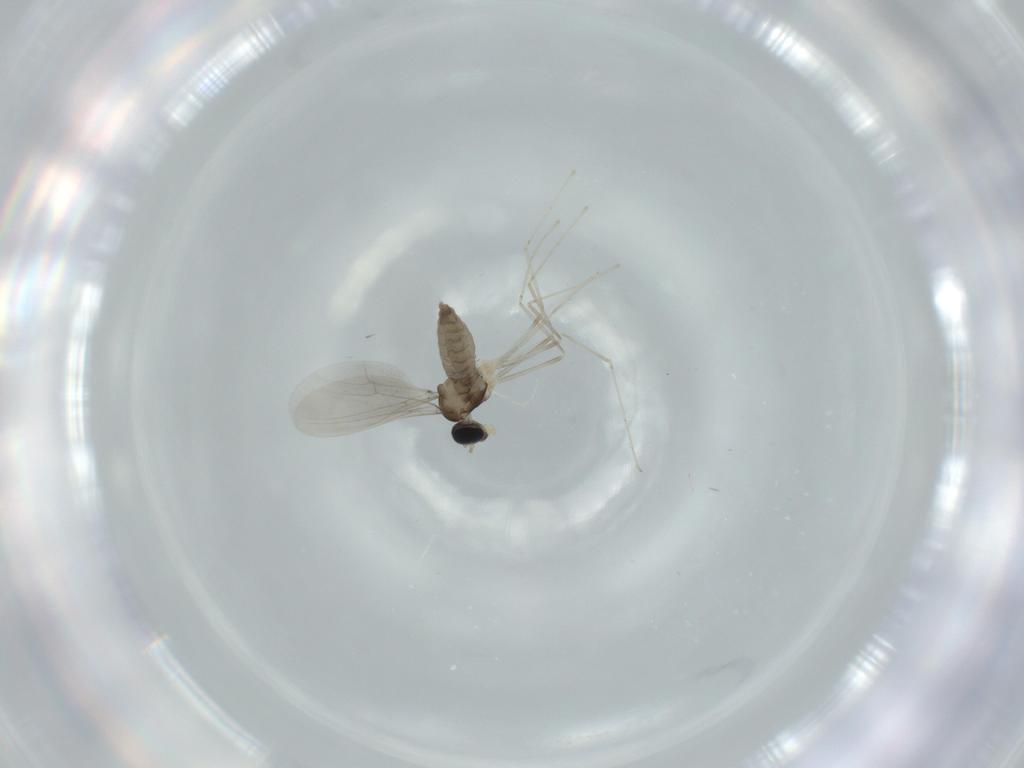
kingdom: Animalia
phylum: Arthropoda
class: Insecta
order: Diptera
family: Cecidomyiidae
